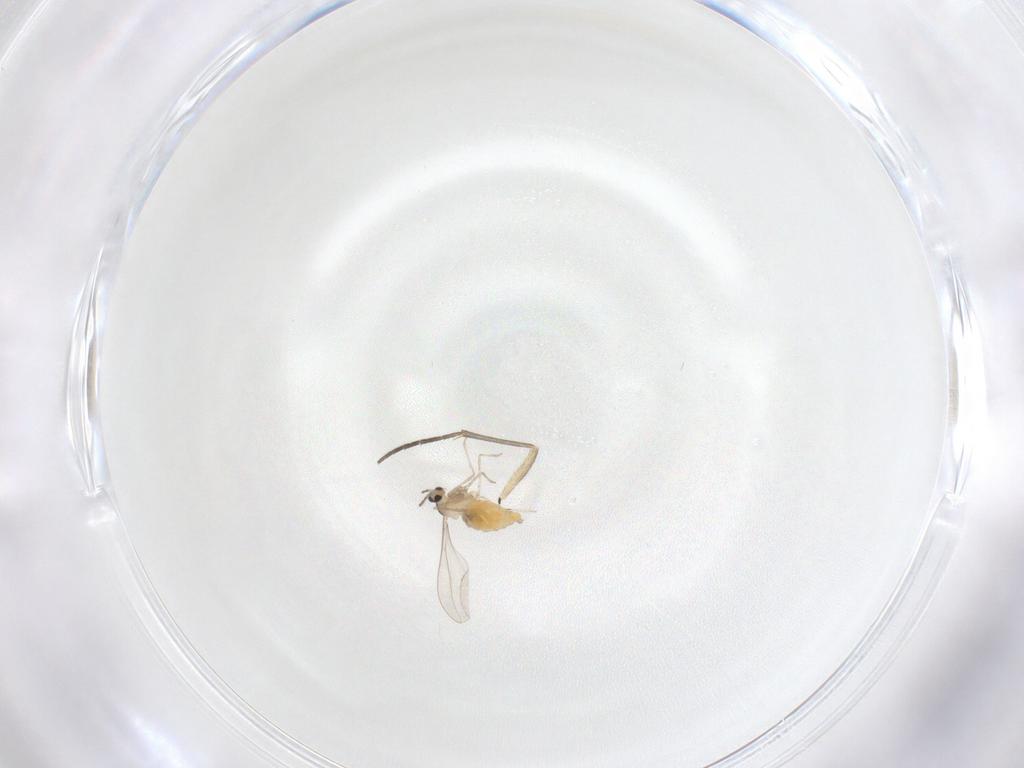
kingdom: Animalia
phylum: Arthropoda
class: Insecta
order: Diptera
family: Cecidomyiidae
